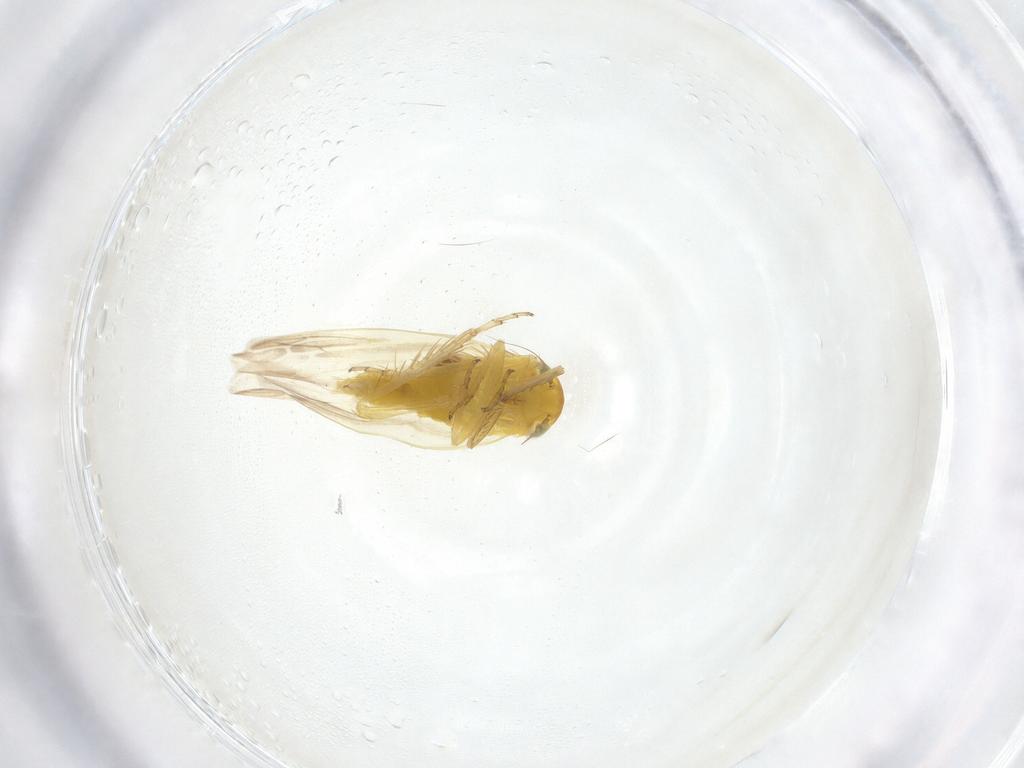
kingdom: Animalia
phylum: Arthropoda
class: Insecta
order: Hemiptera
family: Cicadellidae
